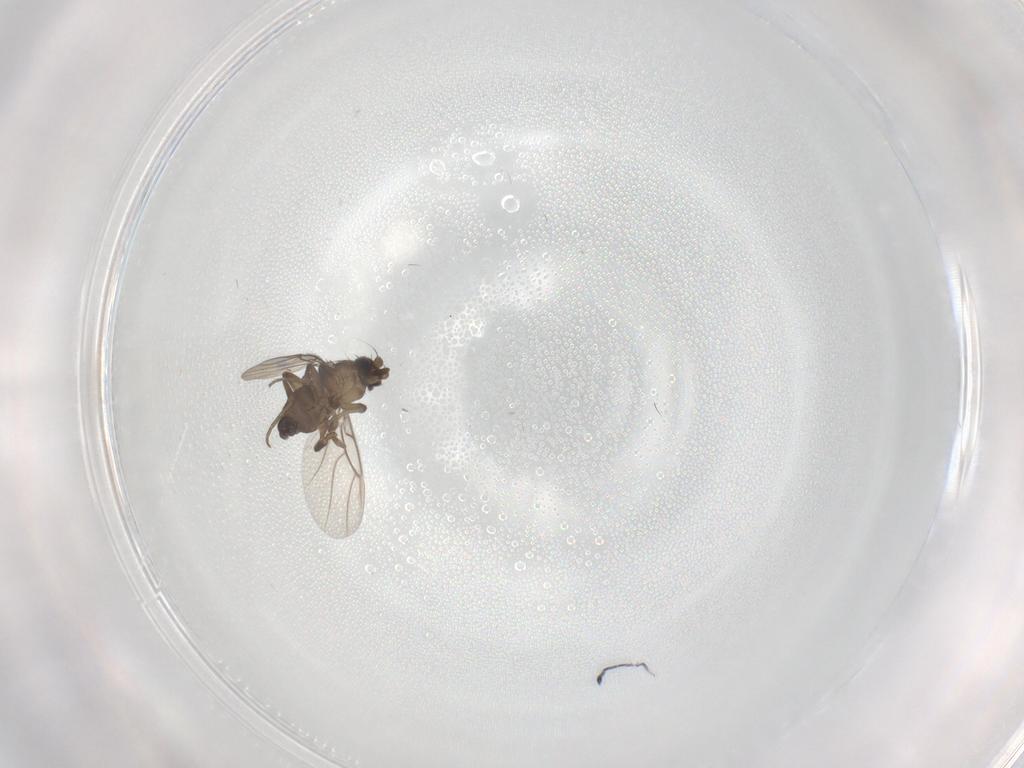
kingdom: Animalia
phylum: Arthropoda
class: Insecta
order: Diptera
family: Phoridae
